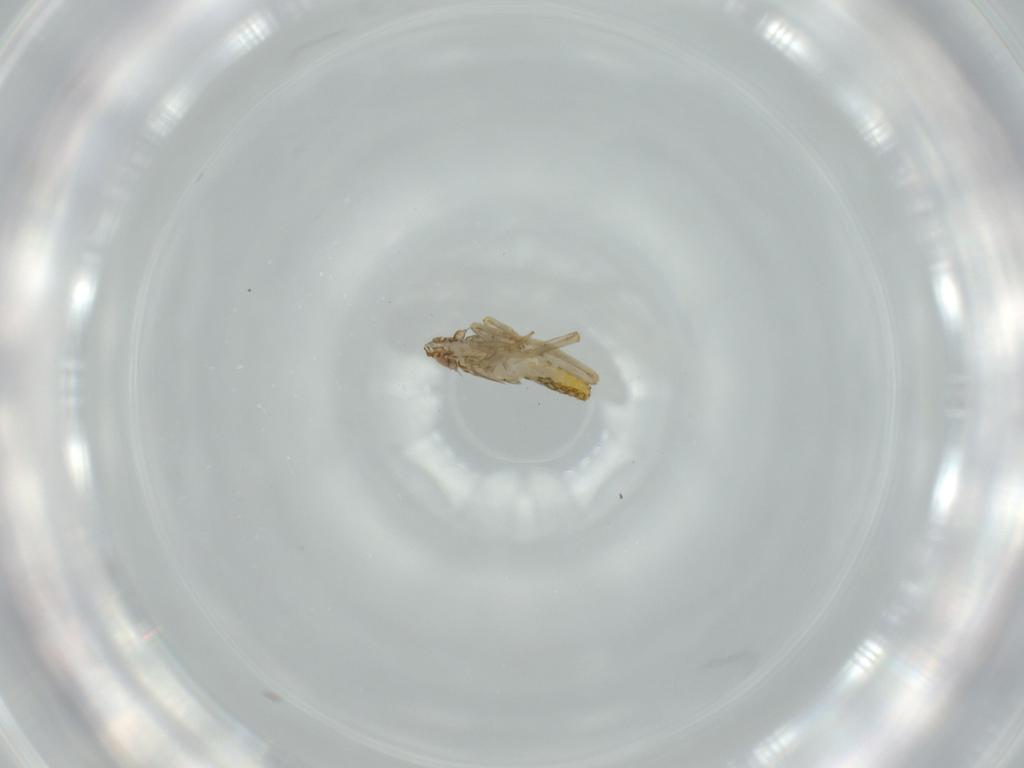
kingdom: Animalia
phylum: Arthropoda
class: Insecta
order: Hemiptera
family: Delphacidae
